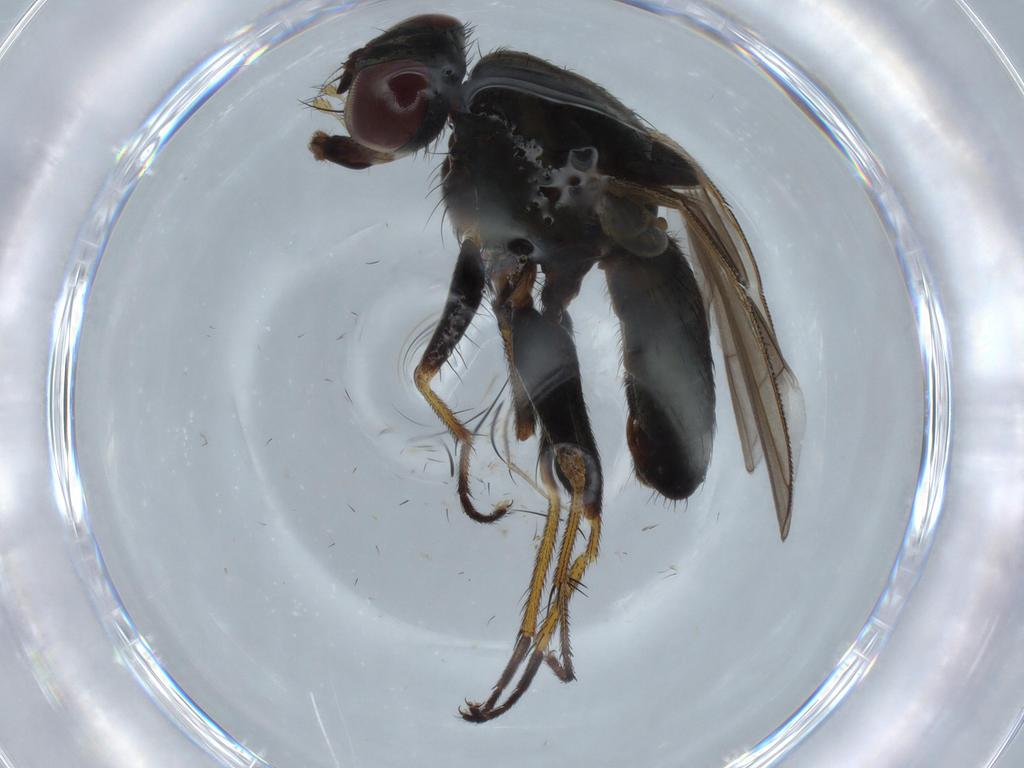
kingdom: Animalia
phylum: Arthropoda
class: Insecta
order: Diptera
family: Muscidae
